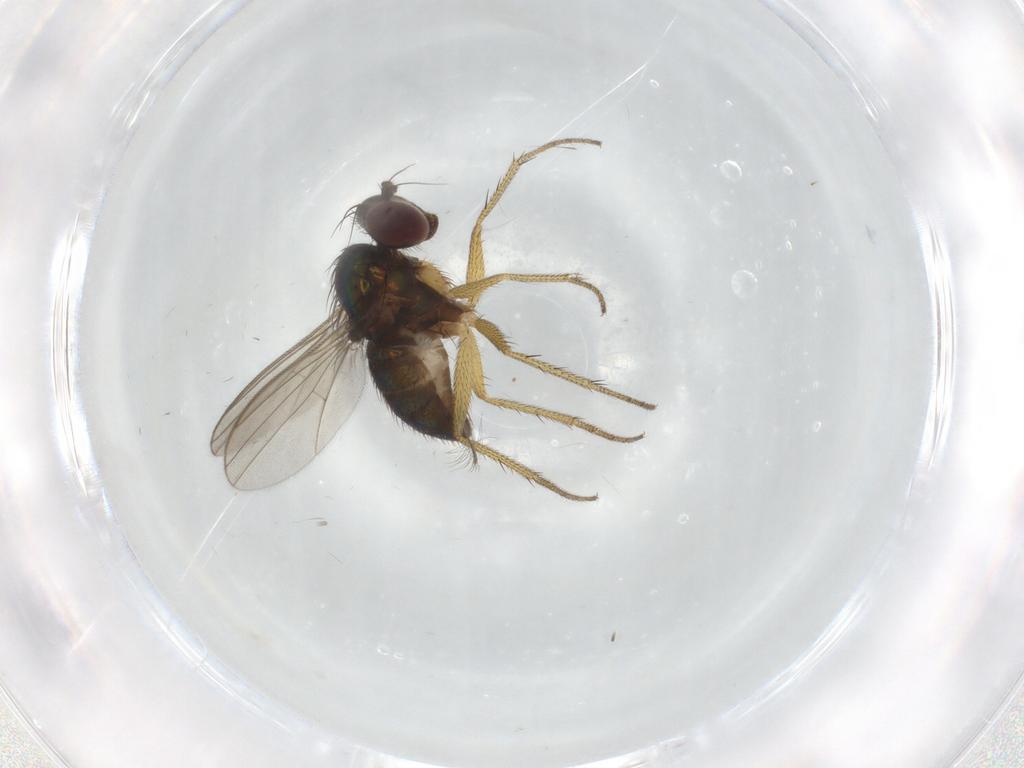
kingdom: Animalia
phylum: Arthropoda
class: Insecta
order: Diptera
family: Dolichopodidae
